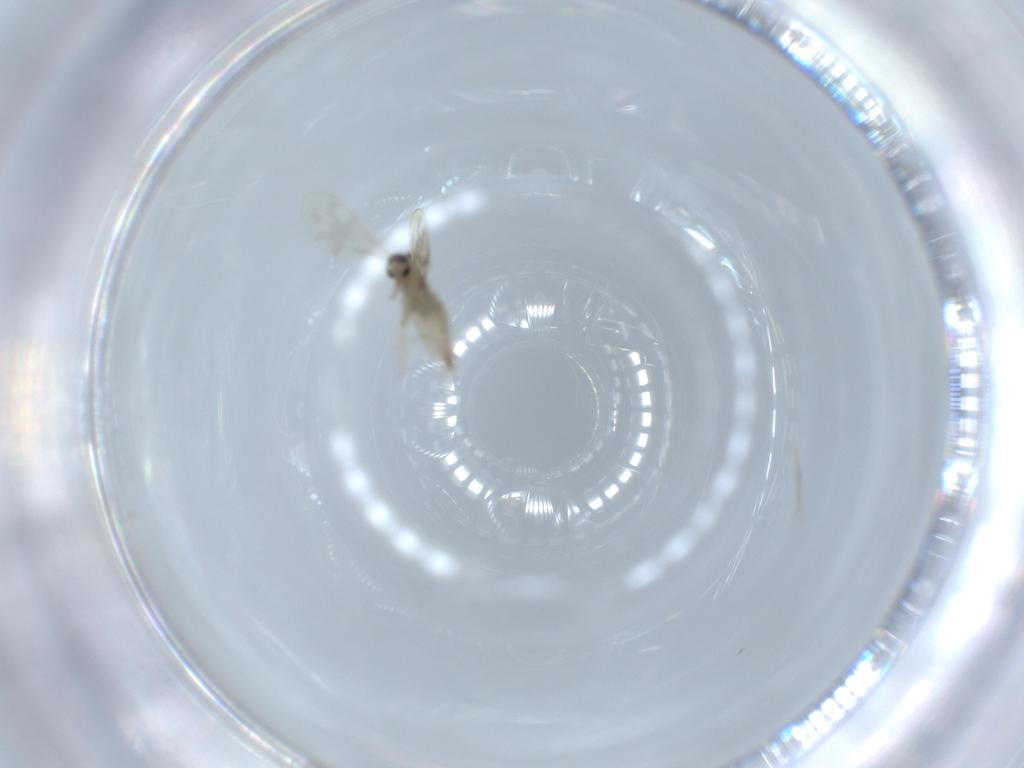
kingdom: Animalia
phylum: Arthropoda
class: Insecta
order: Diptera
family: Cecidomyiidae
